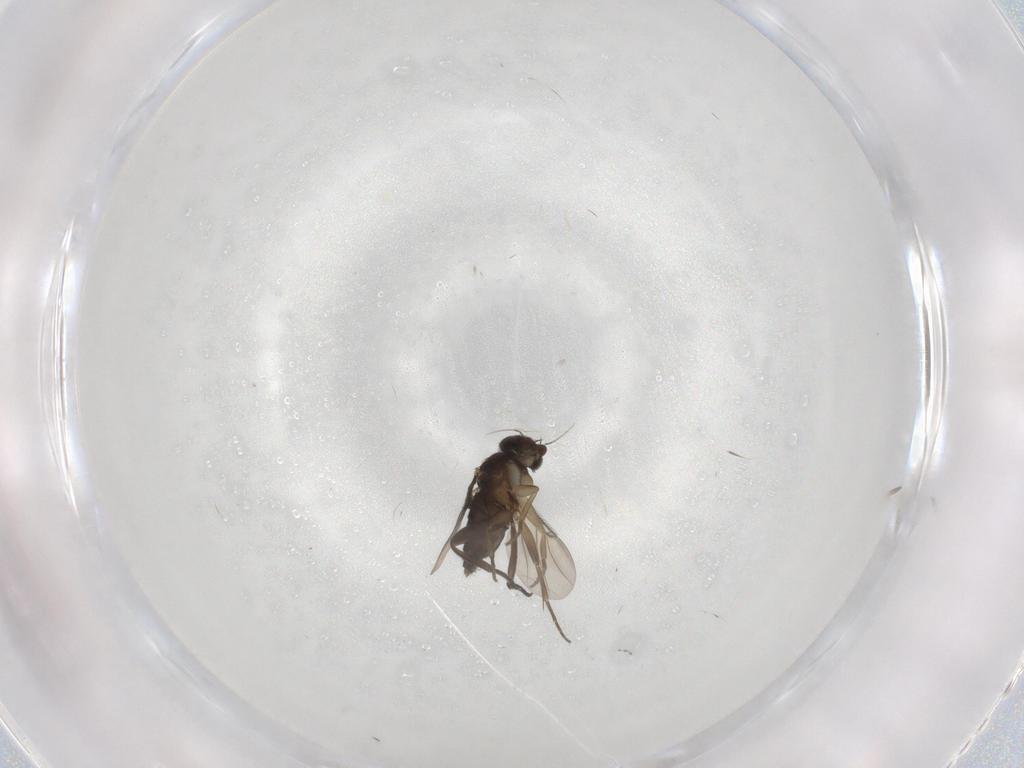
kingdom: Animalia
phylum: Arthropoda
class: Insecta
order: Diptera
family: Phoridae
